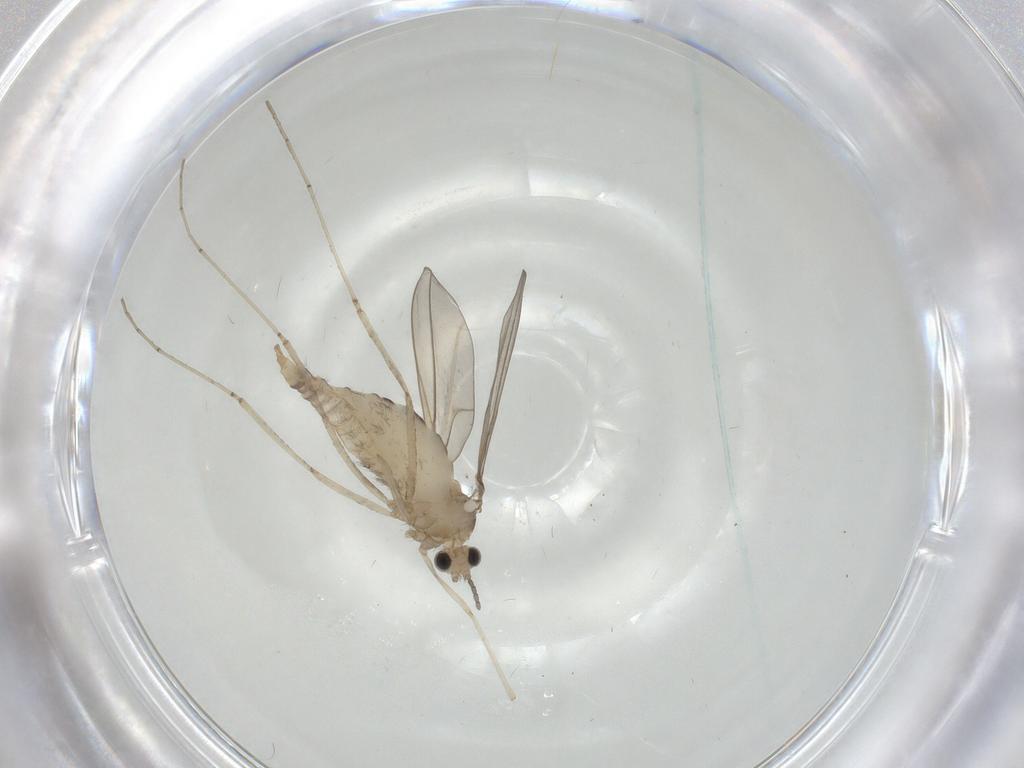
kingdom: Animalia
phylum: Arthropoda
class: Insecta
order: Diptera
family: Cecidomyiidae
